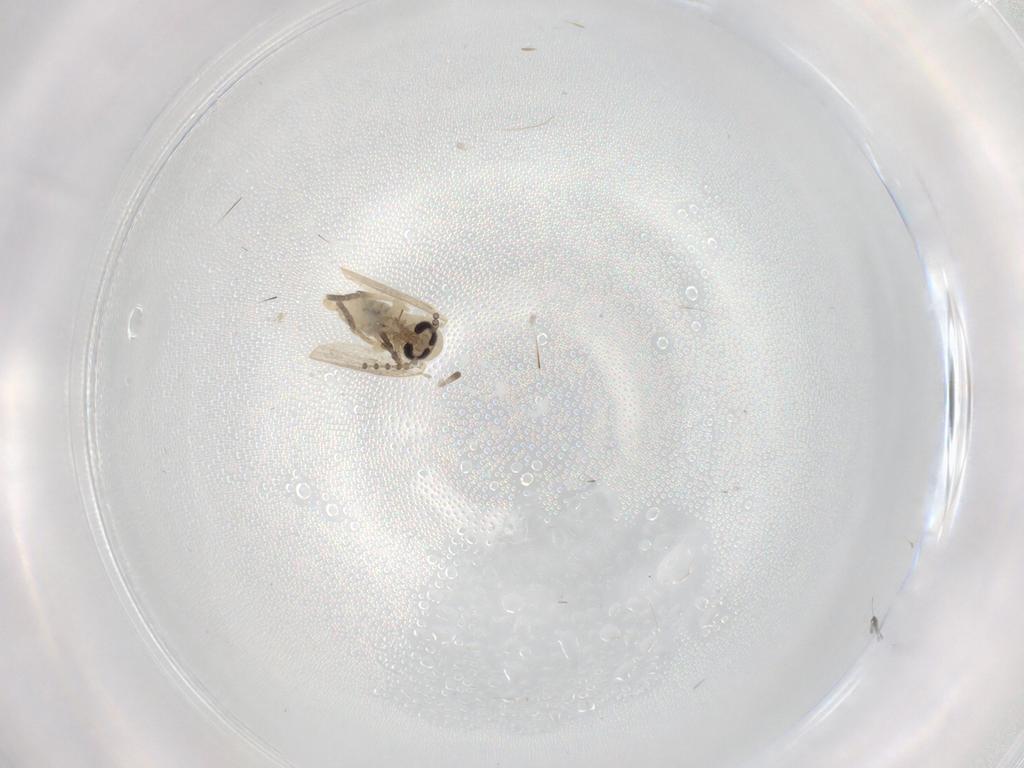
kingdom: Animalia
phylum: Arthropoda
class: Insecta
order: Diptera
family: Psychodidae
